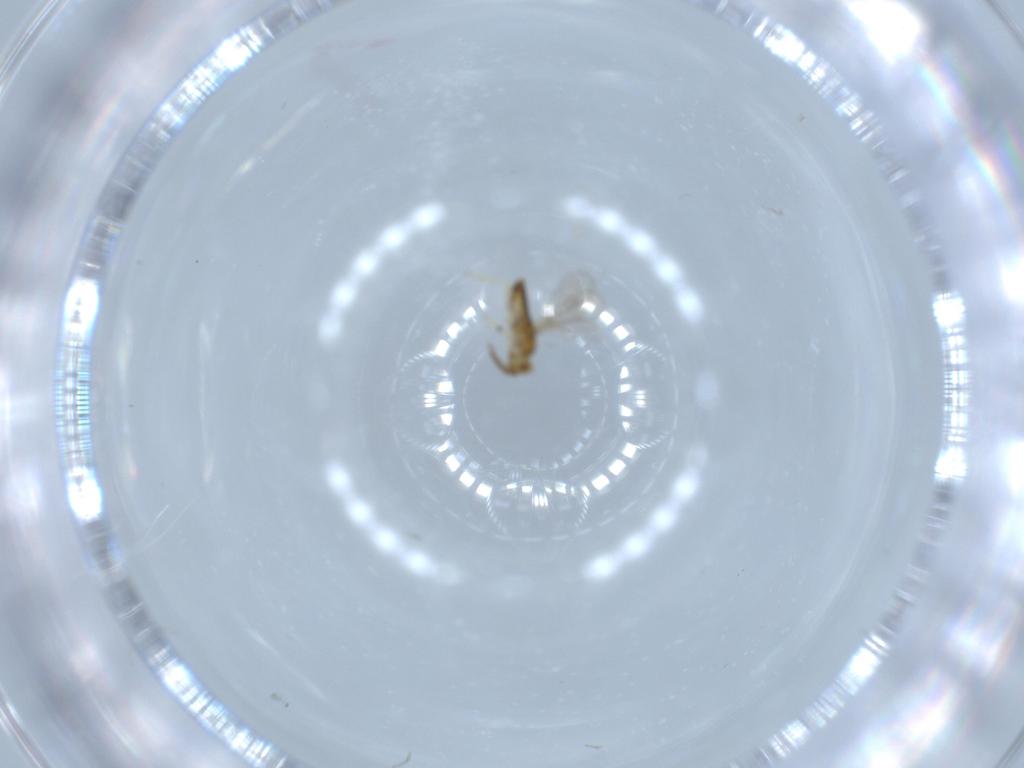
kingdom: Animalia
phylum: Arthropoda
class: Insecta
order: Hymenoptera
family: Aphelinidae
